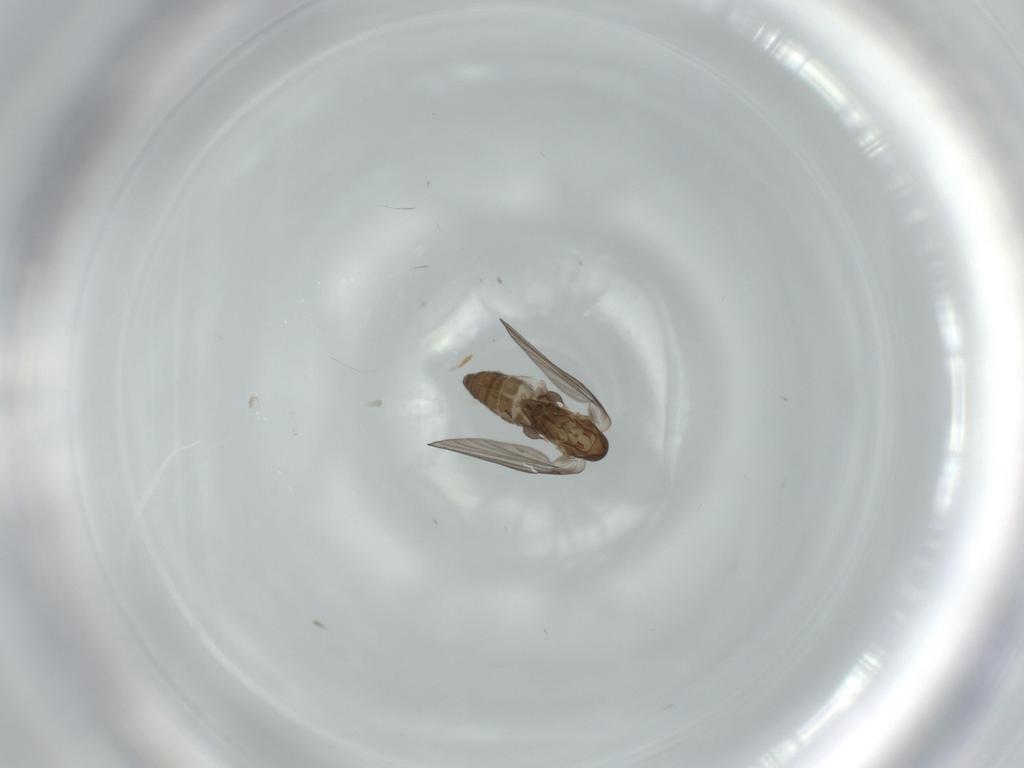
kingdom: Animalia
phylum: Arthropoda
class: Insecta
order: Diptera
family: Psychodidae
